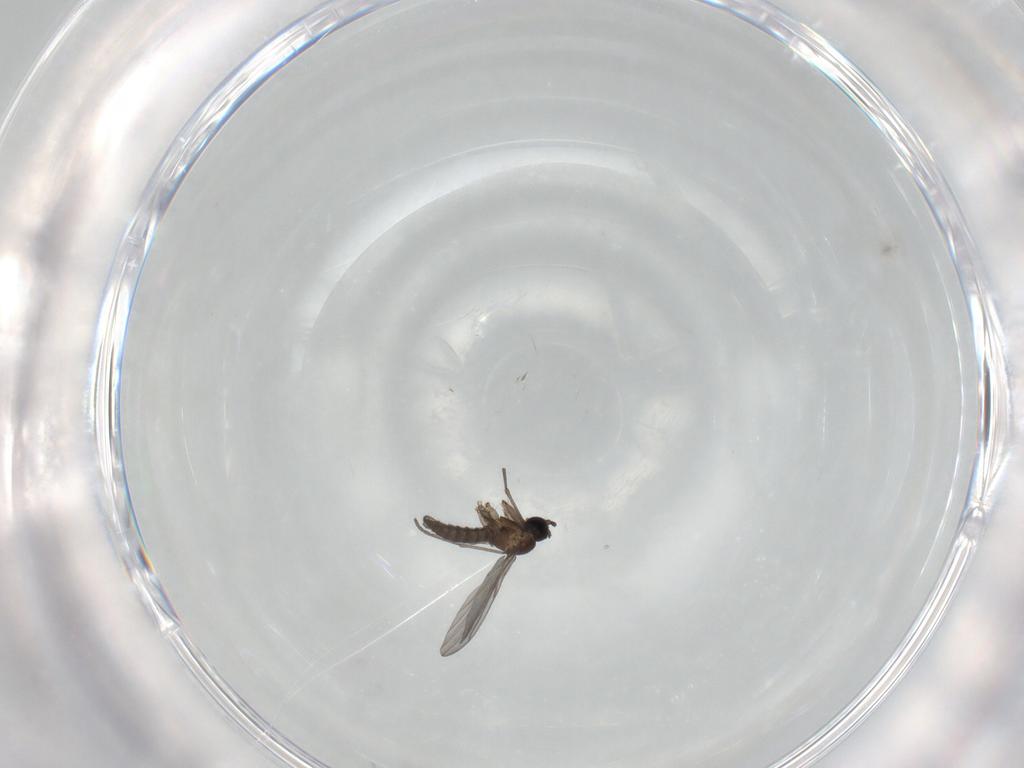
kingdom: Animalia
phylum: Arthropoda
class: Insecta
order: Diptera
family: Sciaridae
